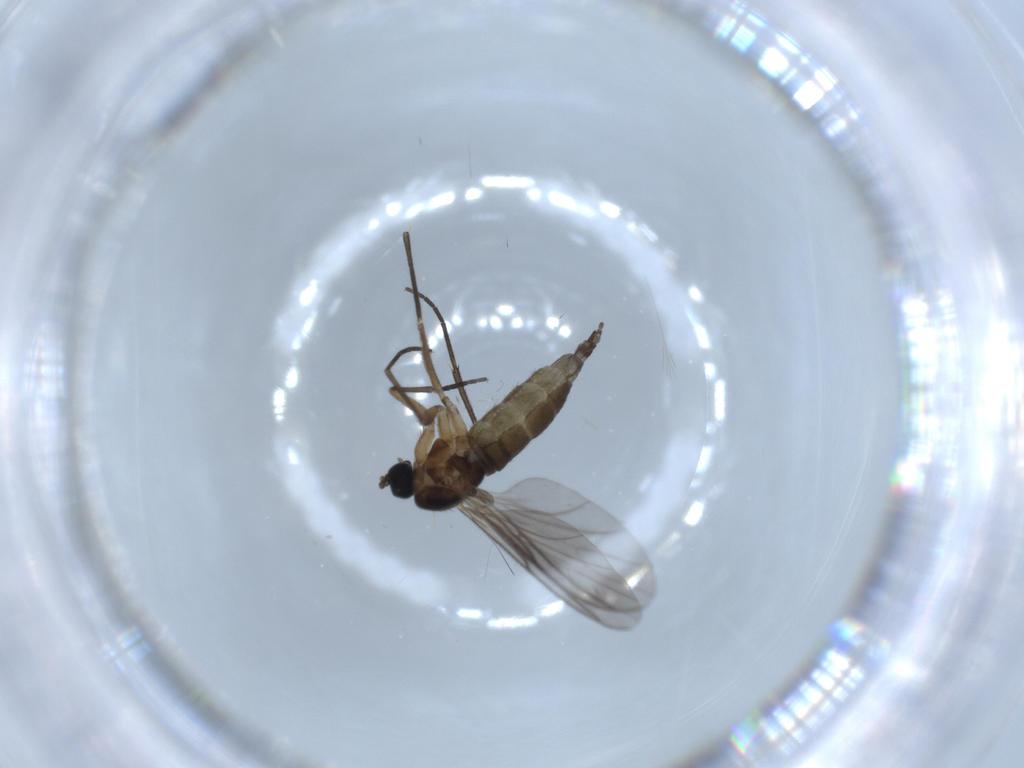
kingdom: Animalia
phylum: Arthropoda
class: Insecta
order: Diptera
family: Sciaridae
